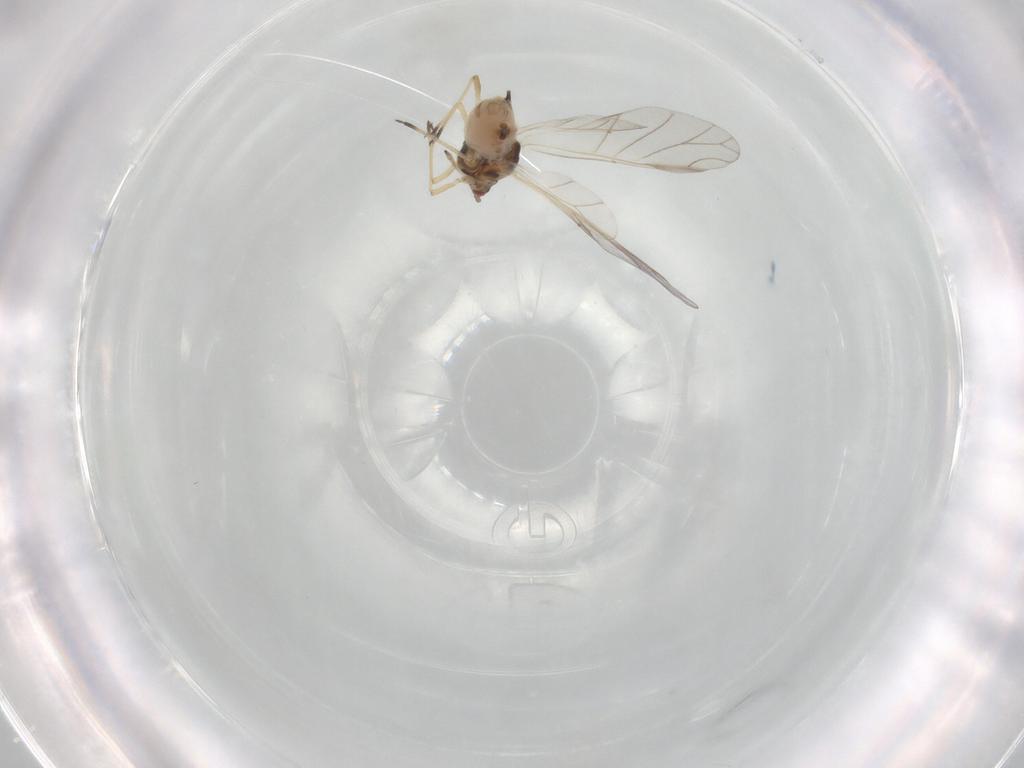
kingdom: Animalia
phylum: Arthropoda
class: Insecta
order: Hemiptera
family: Aphididae
